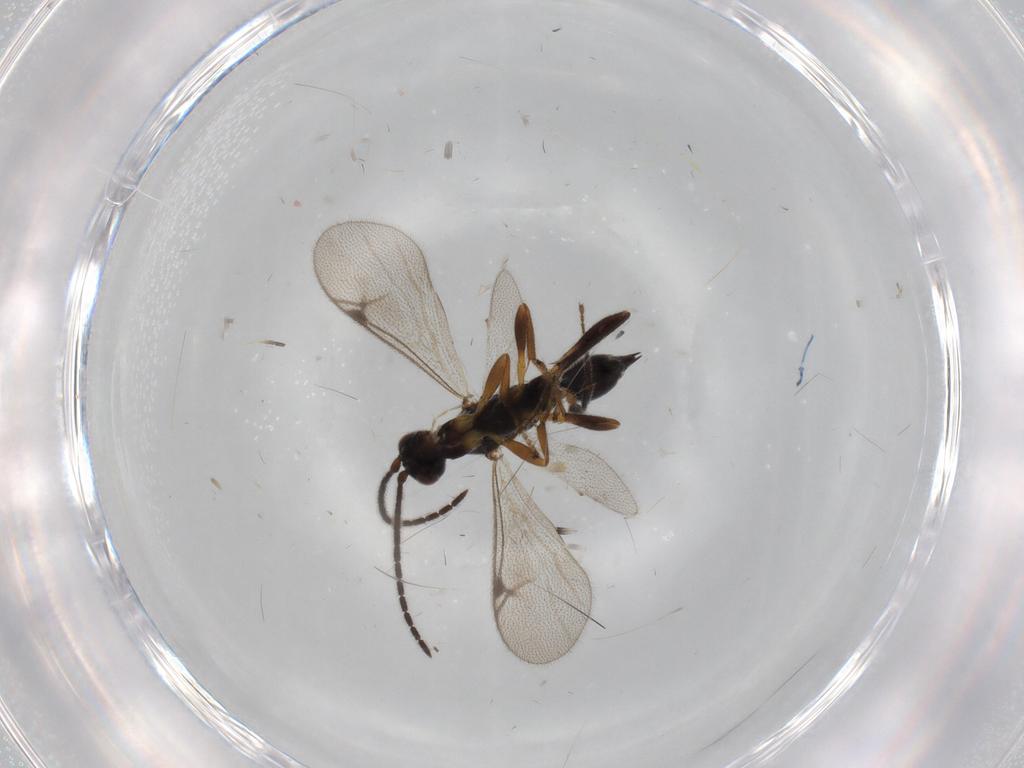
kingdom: Animalia
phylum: Arthropoda
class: Insecta
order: Hymenoptera
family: Proctotrupidae
